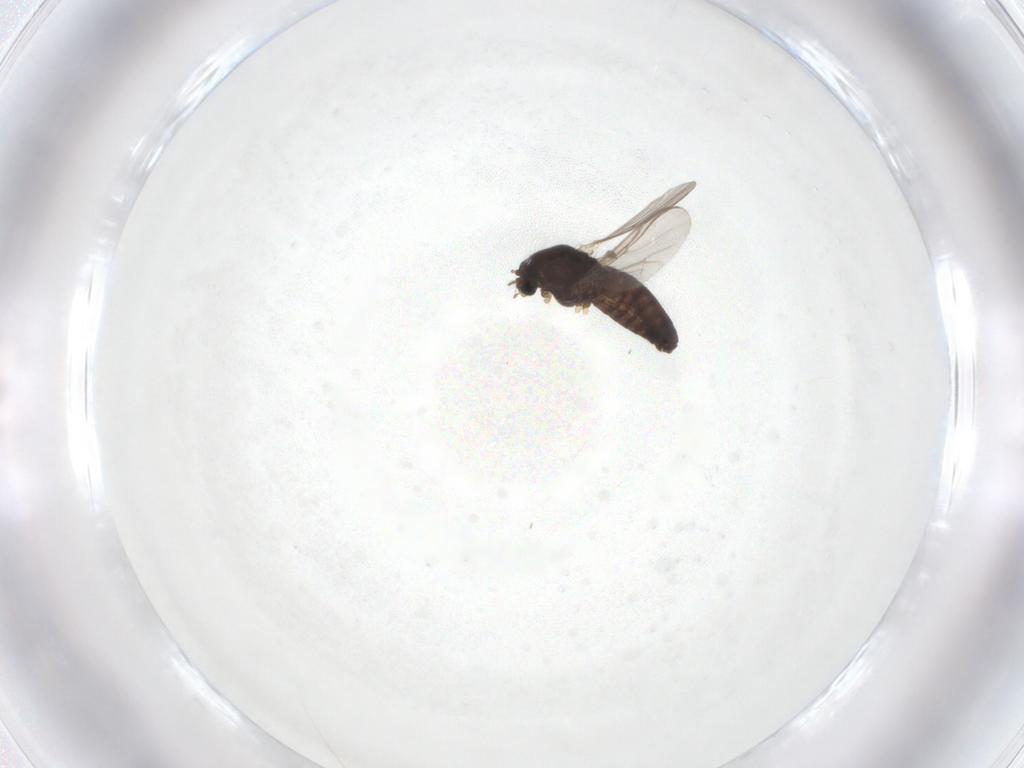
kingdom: Animalia
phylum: Arthropoda
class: Insecta
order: Diptera
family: Chironomidae
